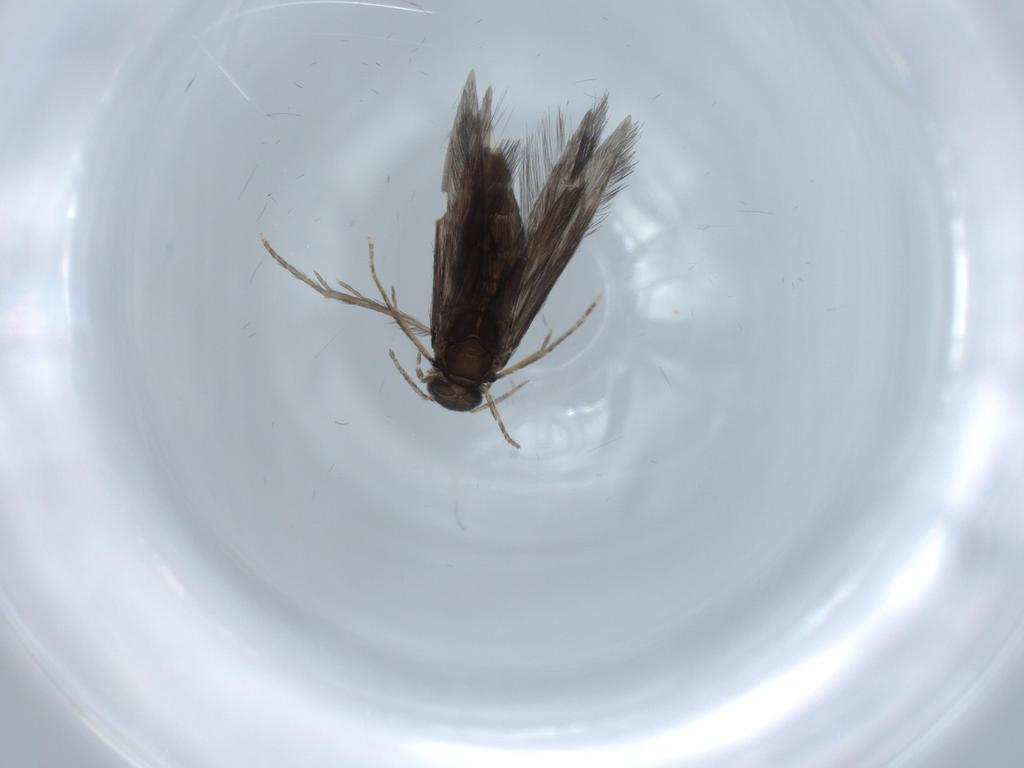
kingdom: Animalia
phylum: Arthropoda
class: Insecta
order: Trichoptera
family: Hydroptilidae
